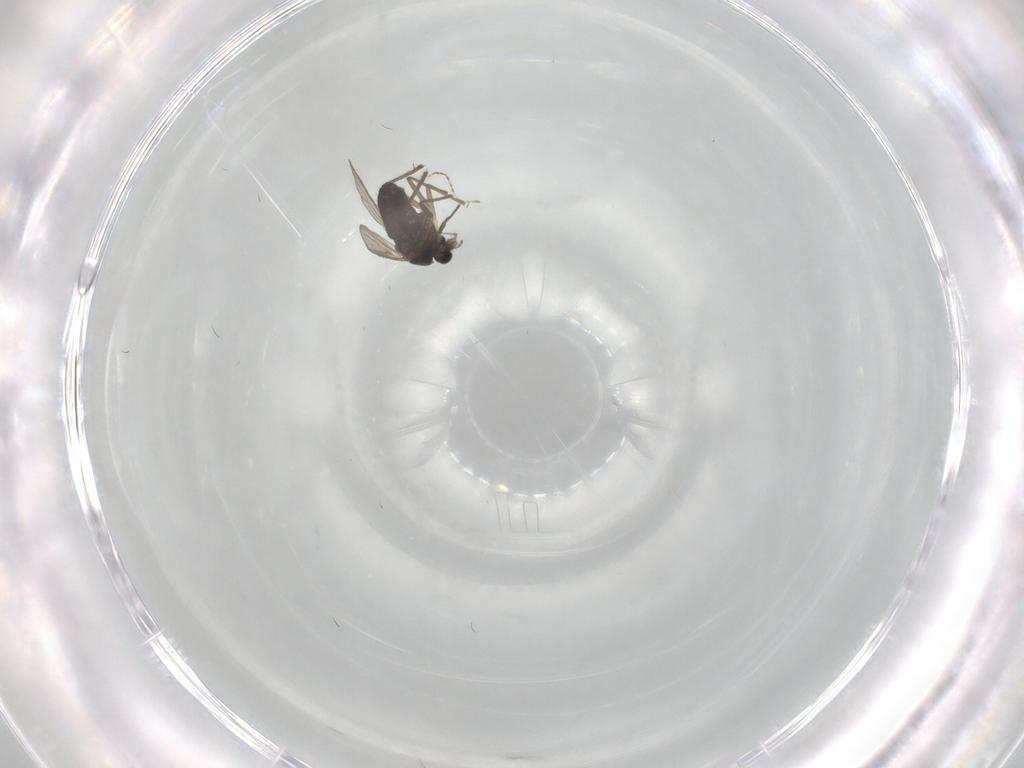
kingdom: Animalia
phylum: Arthropoda
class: Insecta
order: Diptera
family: Chironomidae
